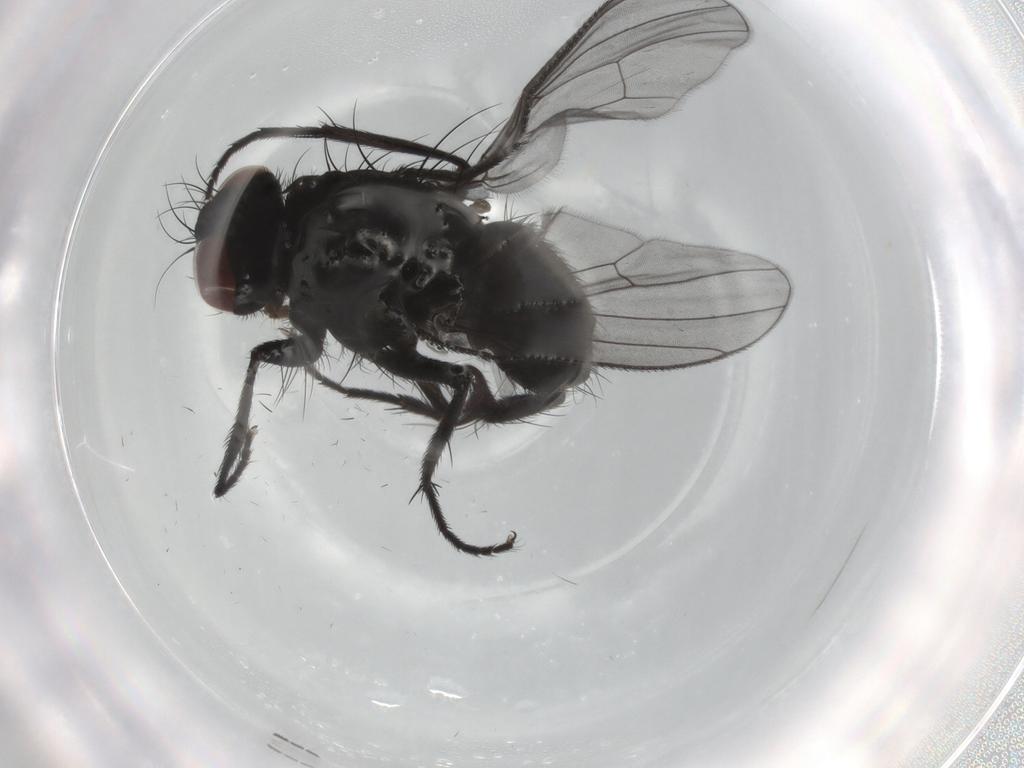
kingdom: Animalia
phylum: Arthropoda
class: Insecta
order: Diptera
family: Muscidae
